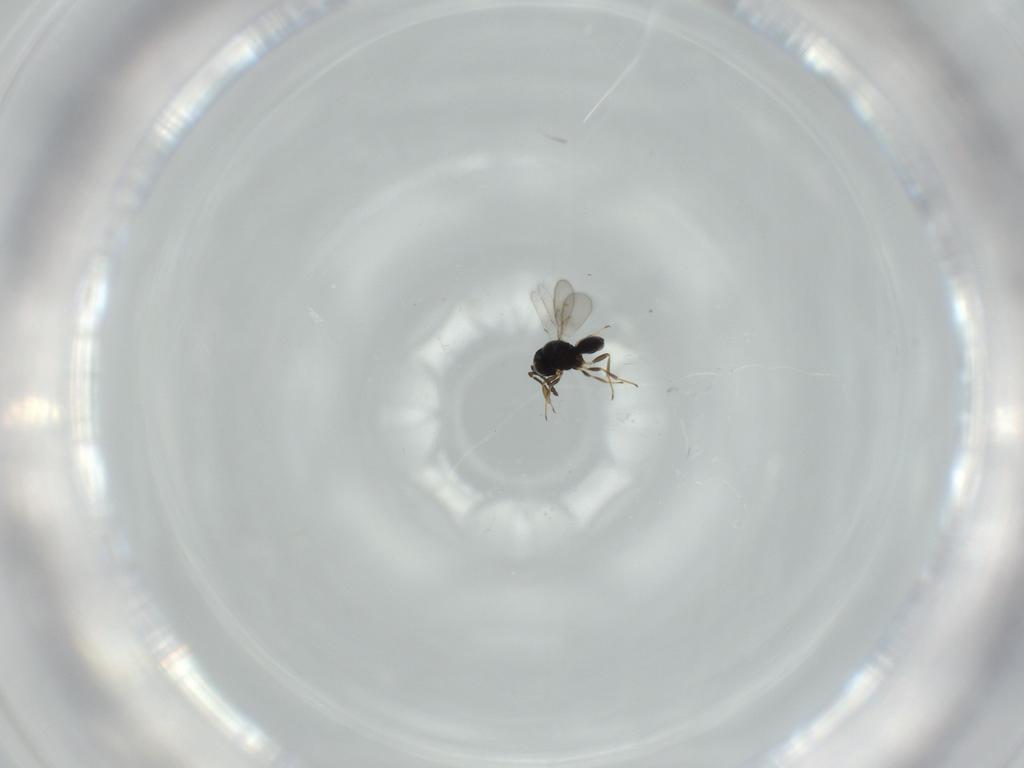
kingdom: Animalia
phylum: Arthropoda
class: Insecta
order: Hymenoptera
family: Scelionidae
